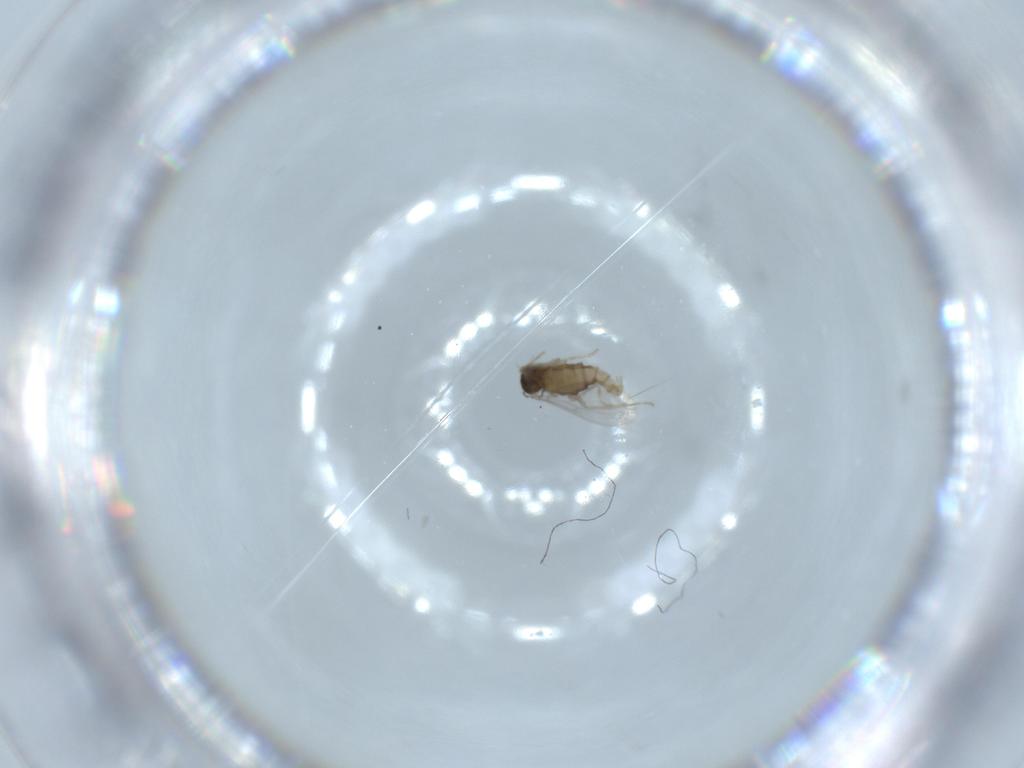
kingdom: Animalia
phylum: Arthropoda
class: Insecta
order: Diptera
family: Cecidomyiidae
